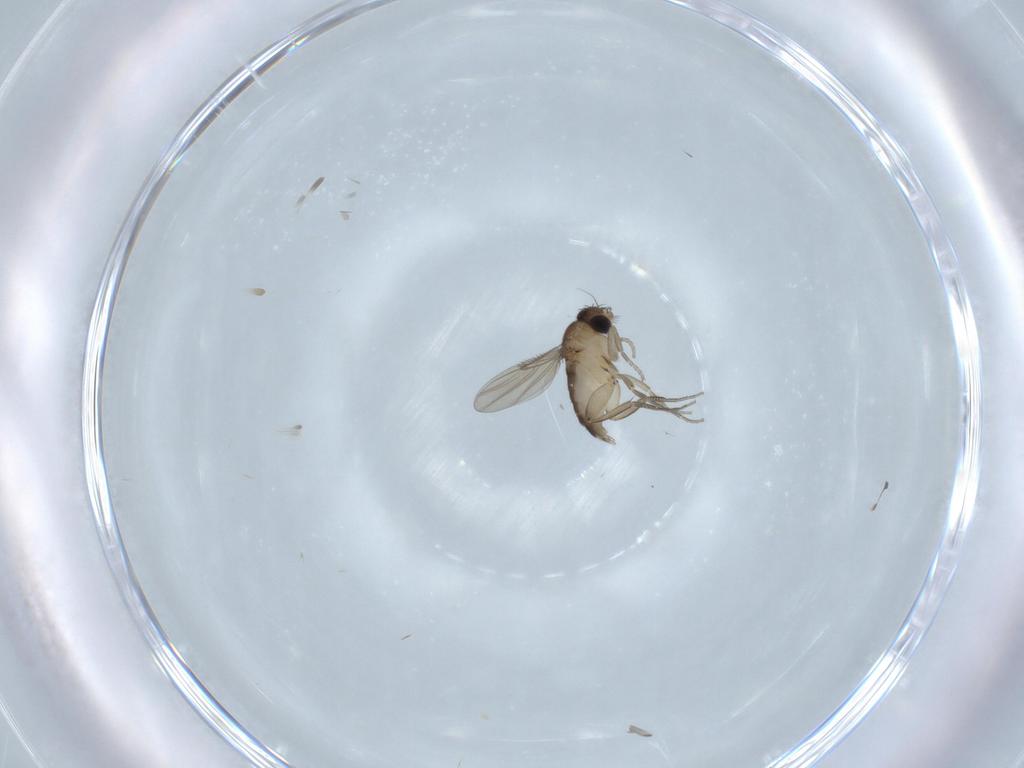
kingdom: Animalia
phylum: Arthropoda
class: Insecta
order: Diptera
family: Phoridae
